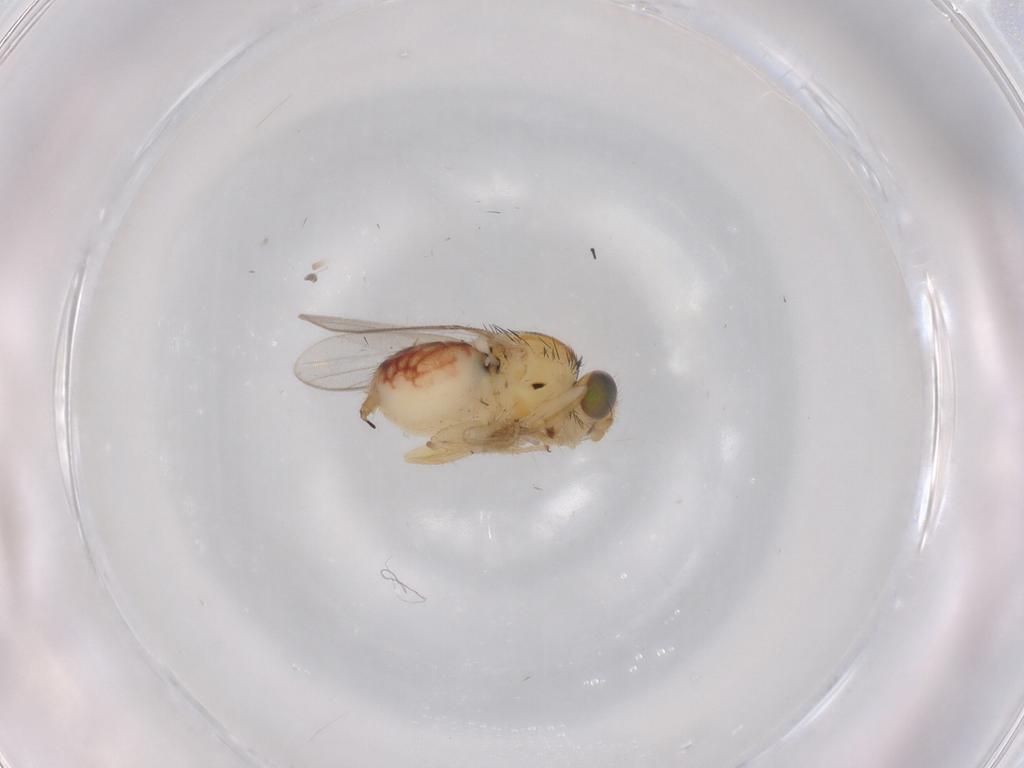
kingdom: Animalia
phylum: Arthropoda
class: Insecta
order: Diptera
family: Chloropidae
